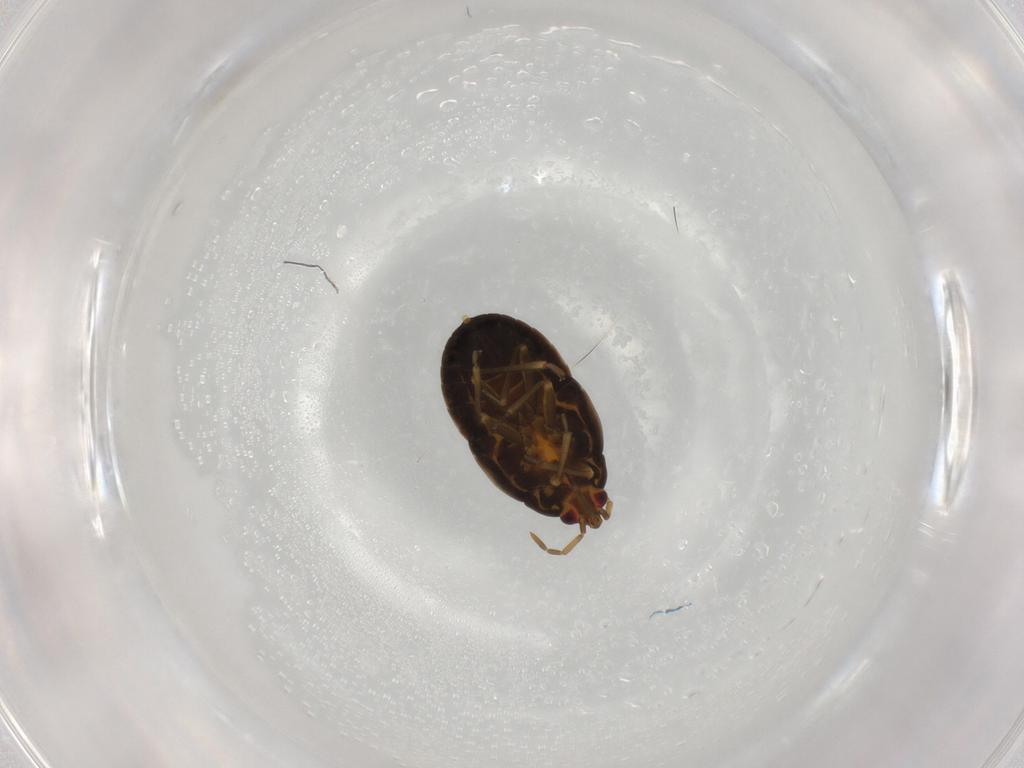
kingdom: Animalia
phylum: Arthropoda
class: Insecta
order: Hemiptera
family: Anthocoridae
